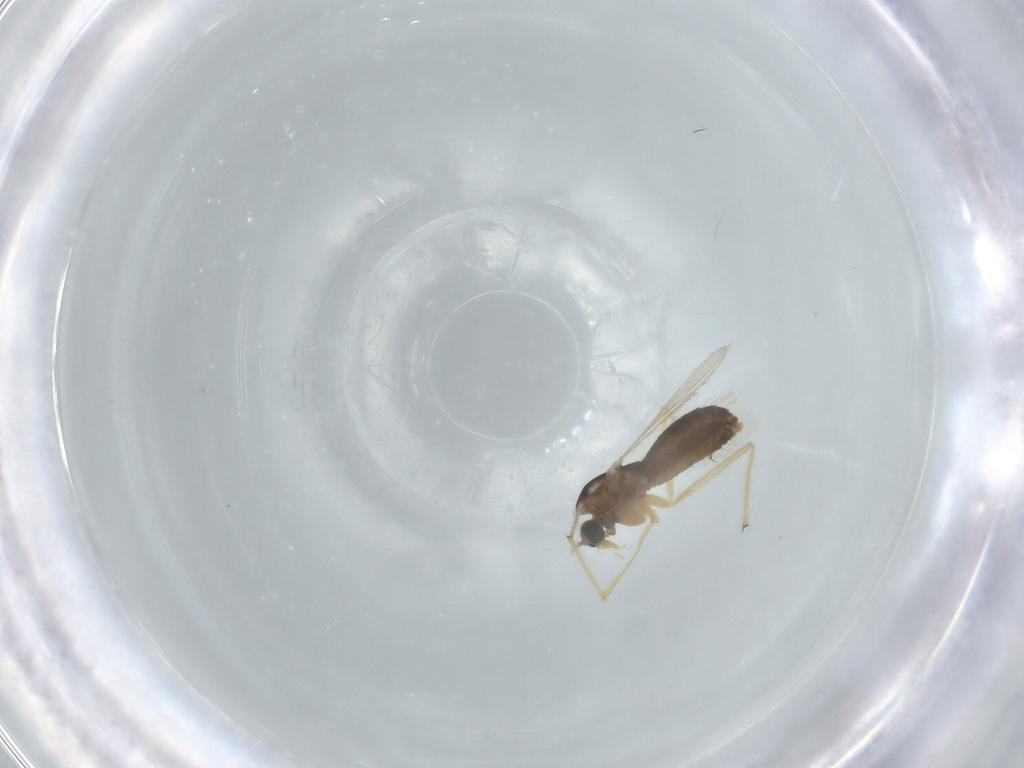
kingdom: Animalia
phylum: Arthropoda
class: Insecta
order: Diptera
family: Chironomidae
